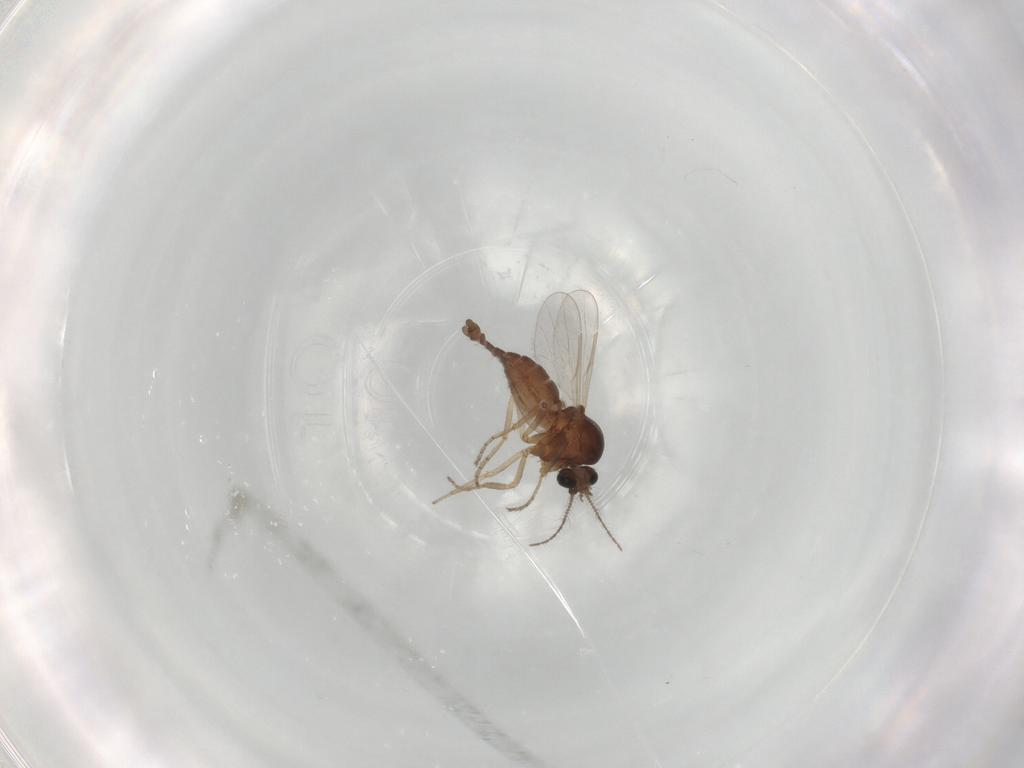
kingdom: Animalia
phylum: Arthropoda
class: Insecta
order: Diptera
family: Ceratopogonidae
